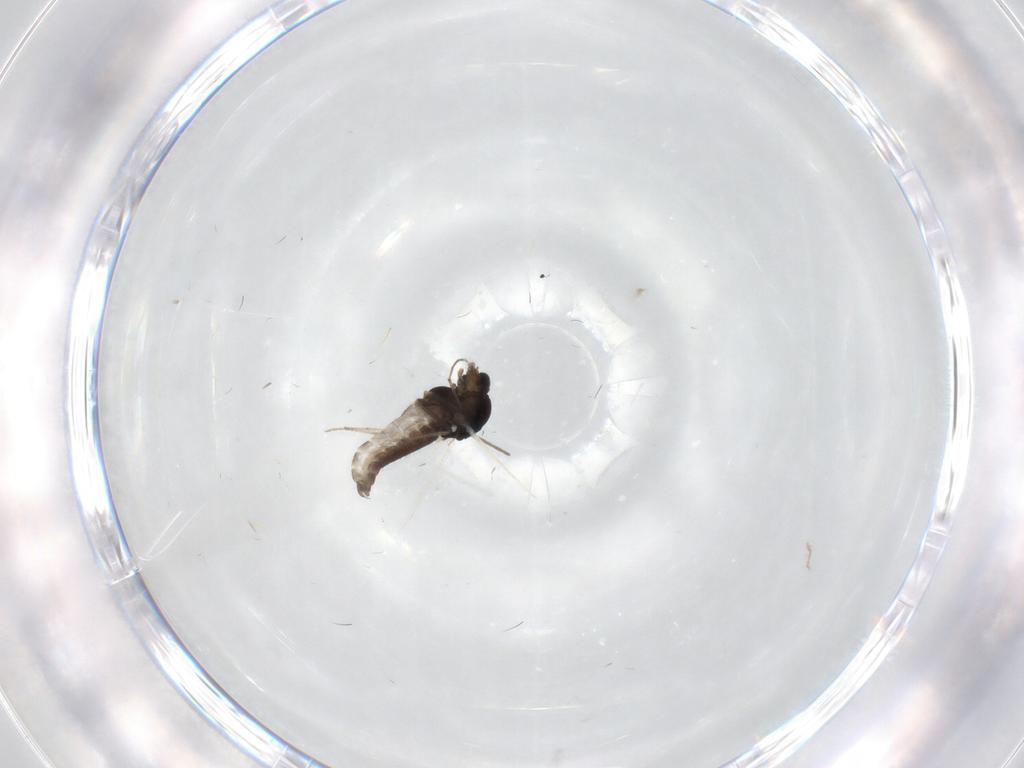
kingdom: Animalia
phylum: Arthropoda
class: Insecta
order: Diptera
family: Chironomidae
